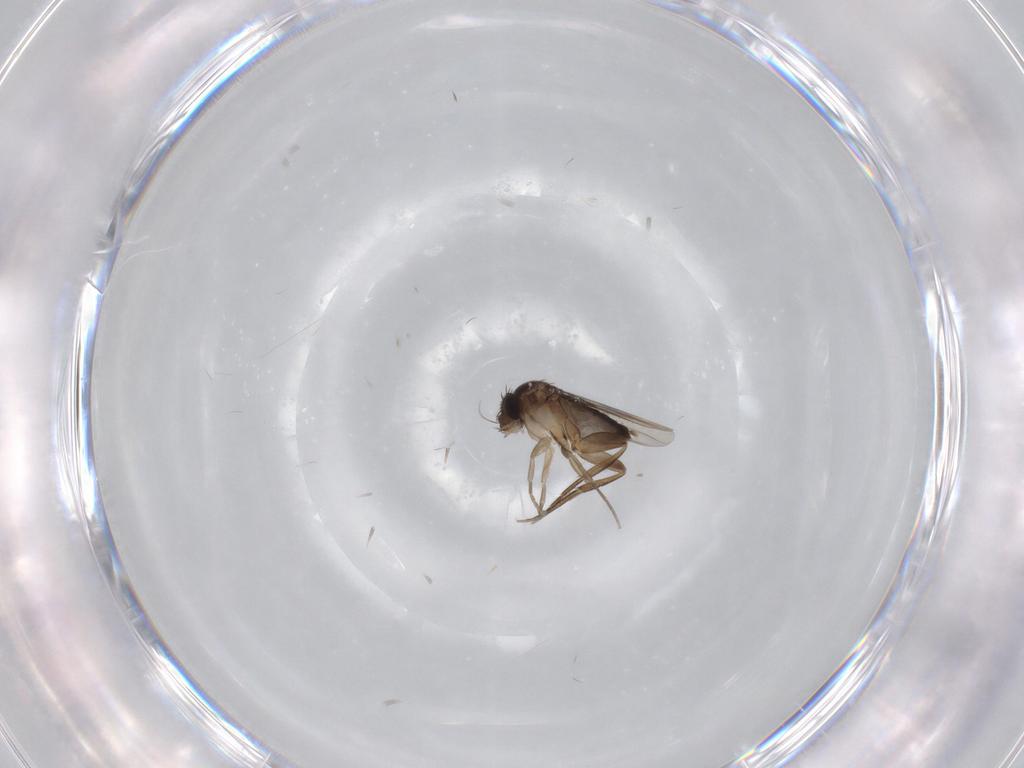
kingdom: Animalia
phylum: Arthropoda
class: Insecta
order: Diptera
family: Phoridae
